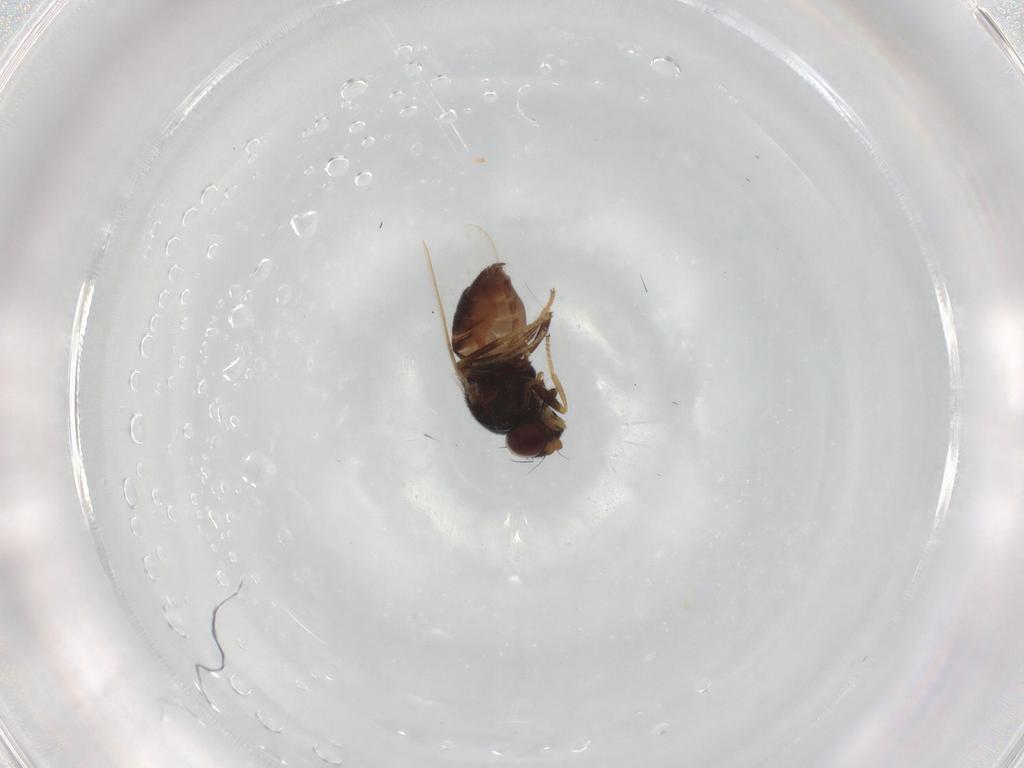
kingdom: Animalia
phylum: Arthropoda
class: Insecta
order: Diptera
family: Chloropidae
